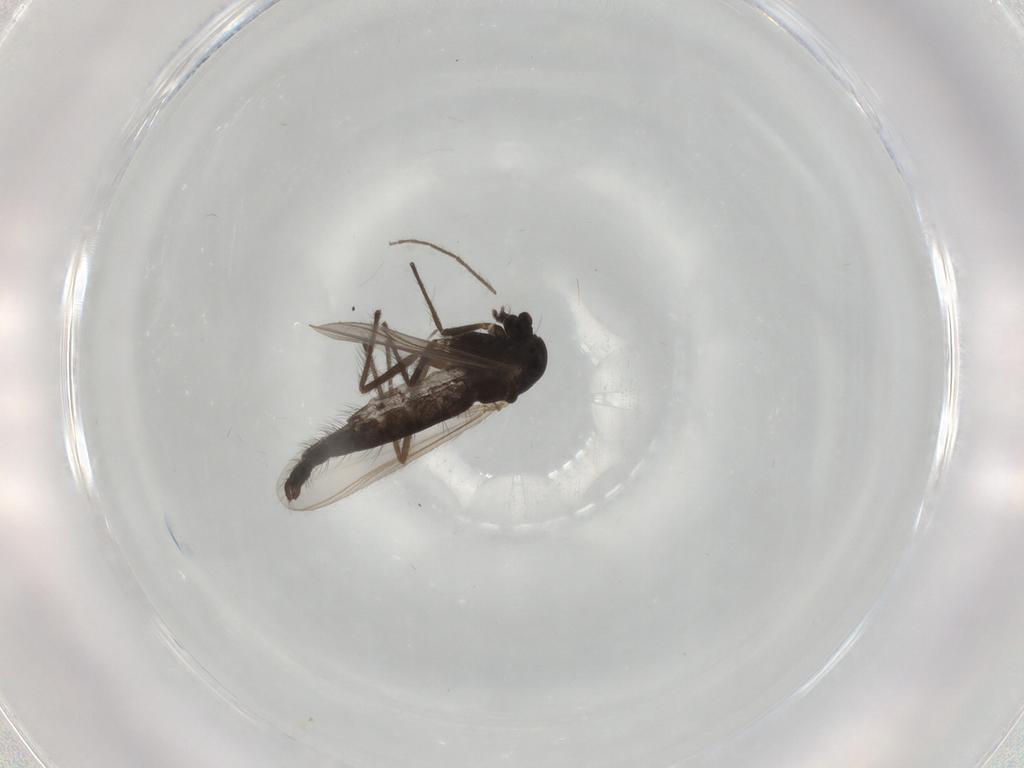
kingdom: Animalia
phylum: Arthropoda
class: Insecta
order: Diptera
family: Chironomidae
